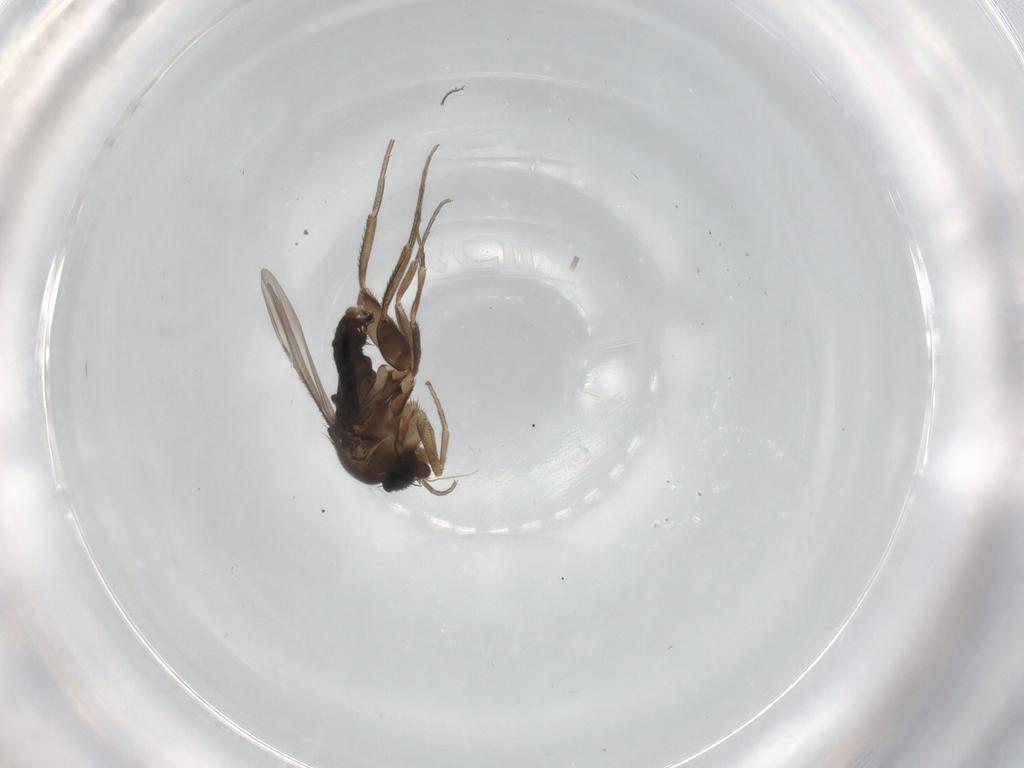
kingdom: Animalia
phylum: Arthropoda
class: Insecta
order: Diptera
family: Phoridae
